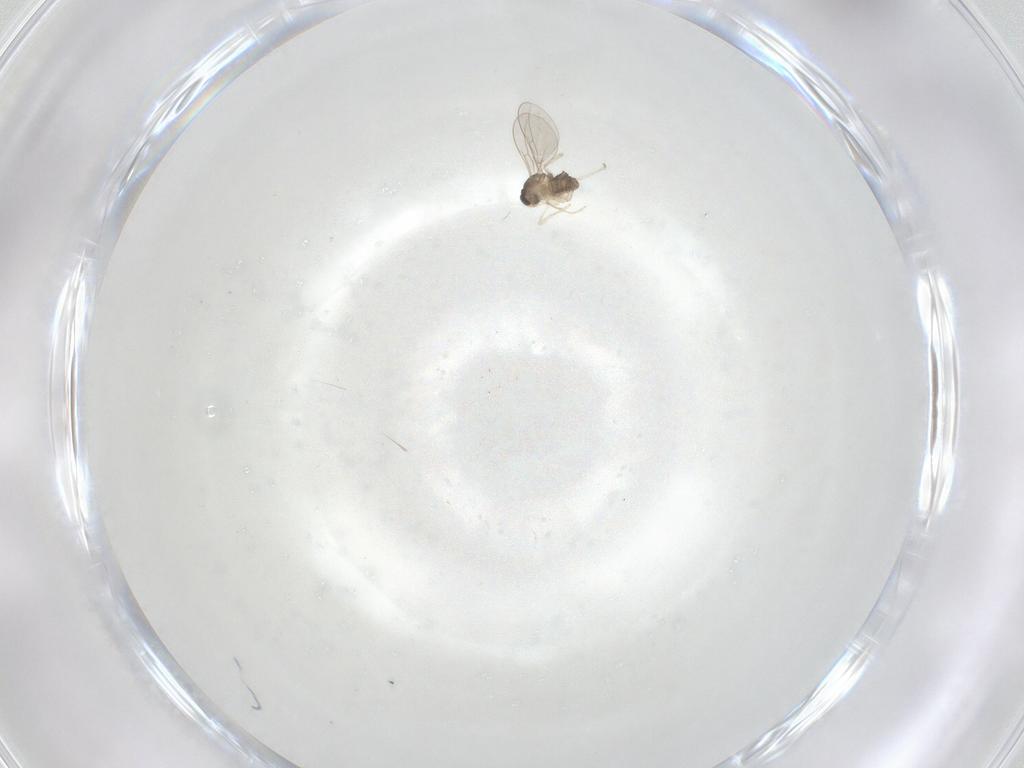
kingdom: Animalia
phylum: Arthropoda
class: Insecta
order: Diptera
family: Cecidomyiidae
